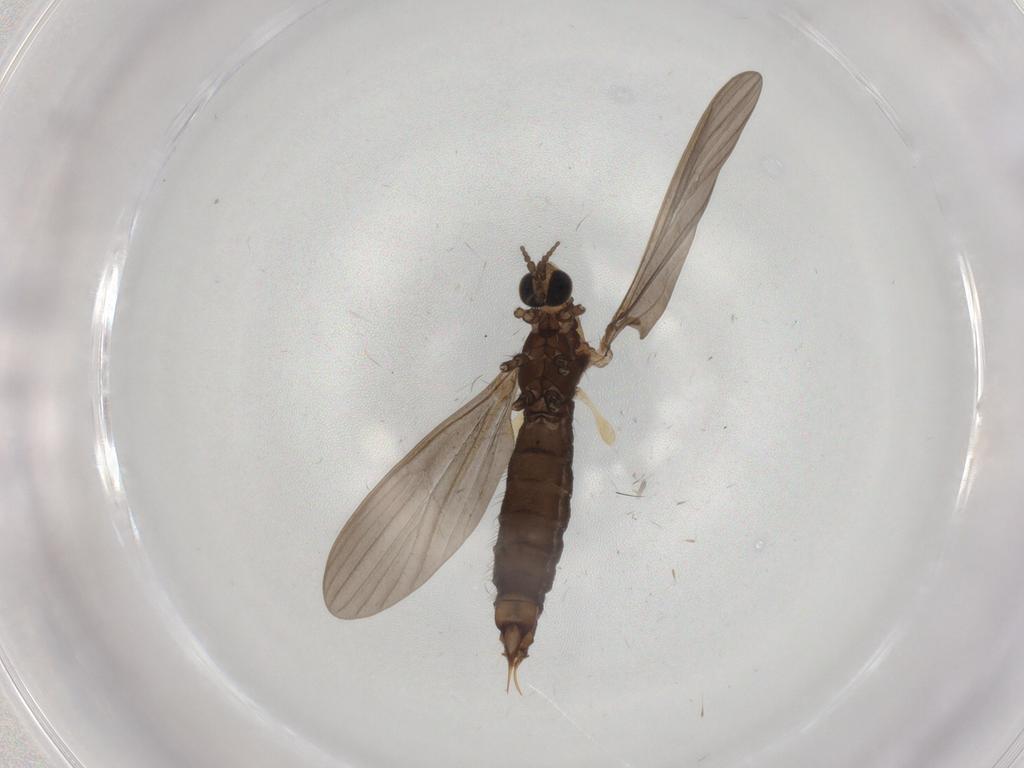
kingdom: Animalia
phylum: Arthropoda
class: Insecta
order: Diptera
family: Limoniidae
